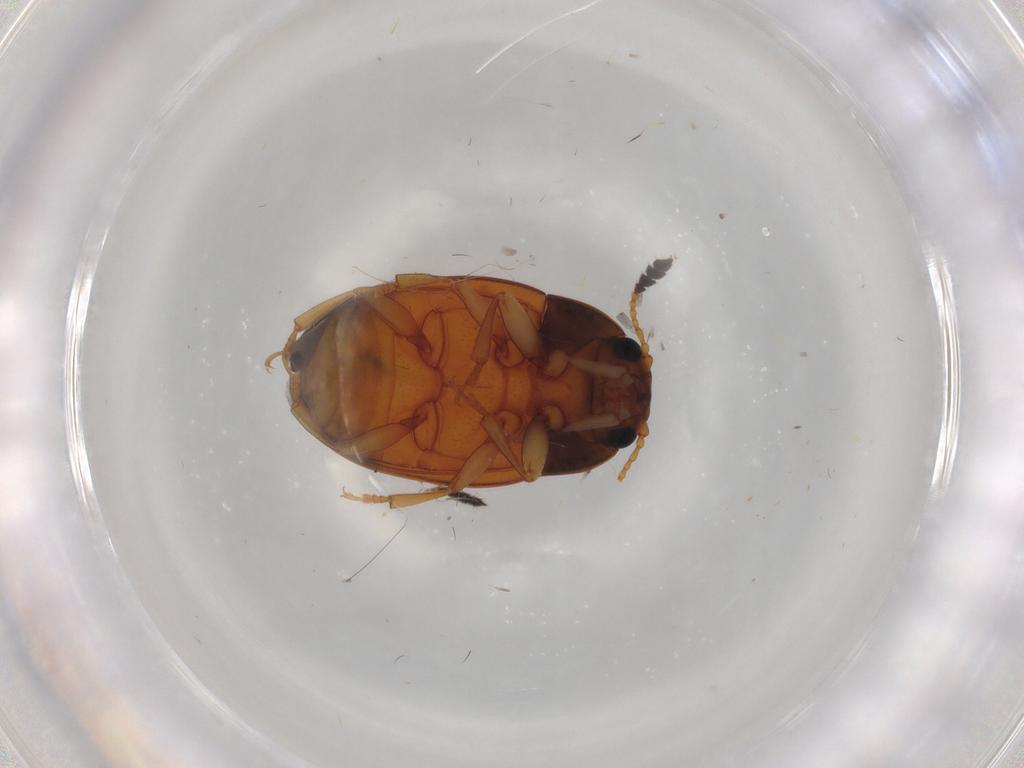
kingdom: Animalia
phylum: Arthropoda
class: Insecta
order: Coleoptera
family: Erotylidae
